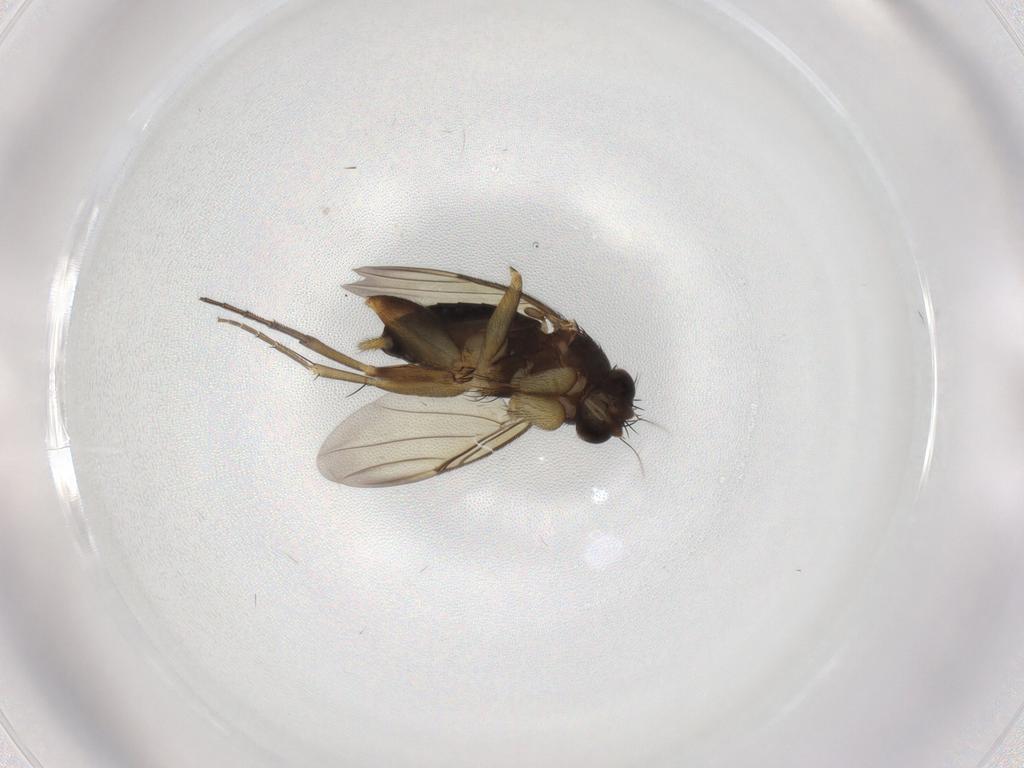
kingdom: Animalia
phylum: Arthropoda
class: Insecta
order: Diptera
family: Phoridae
